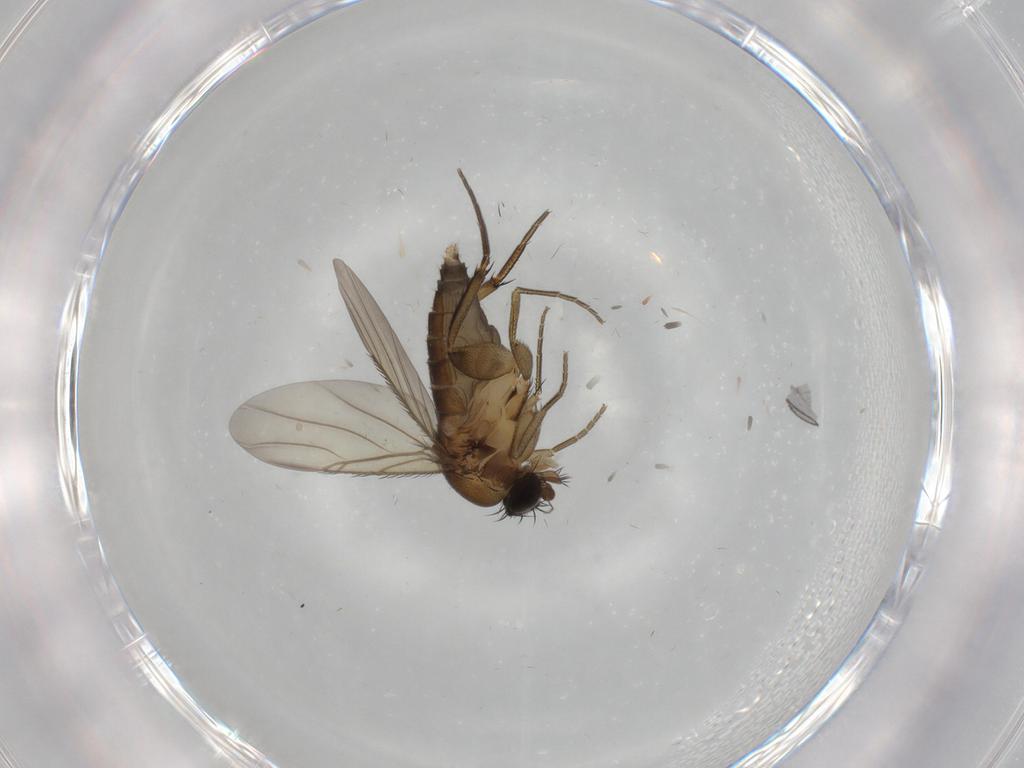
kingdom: Animalia
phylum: Arthropoda
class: Insecta
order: Diptera
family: Phoridae
